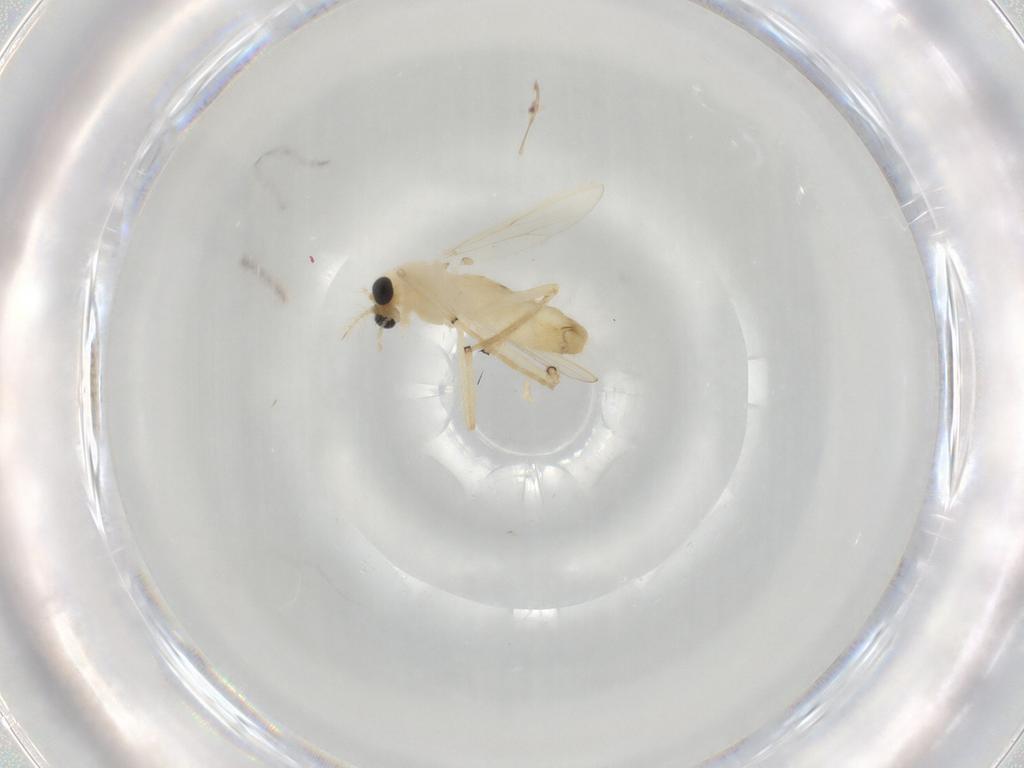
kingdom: Animalia
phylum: Arthropoda
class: Insecta
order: Diptera
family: Chironomidae
